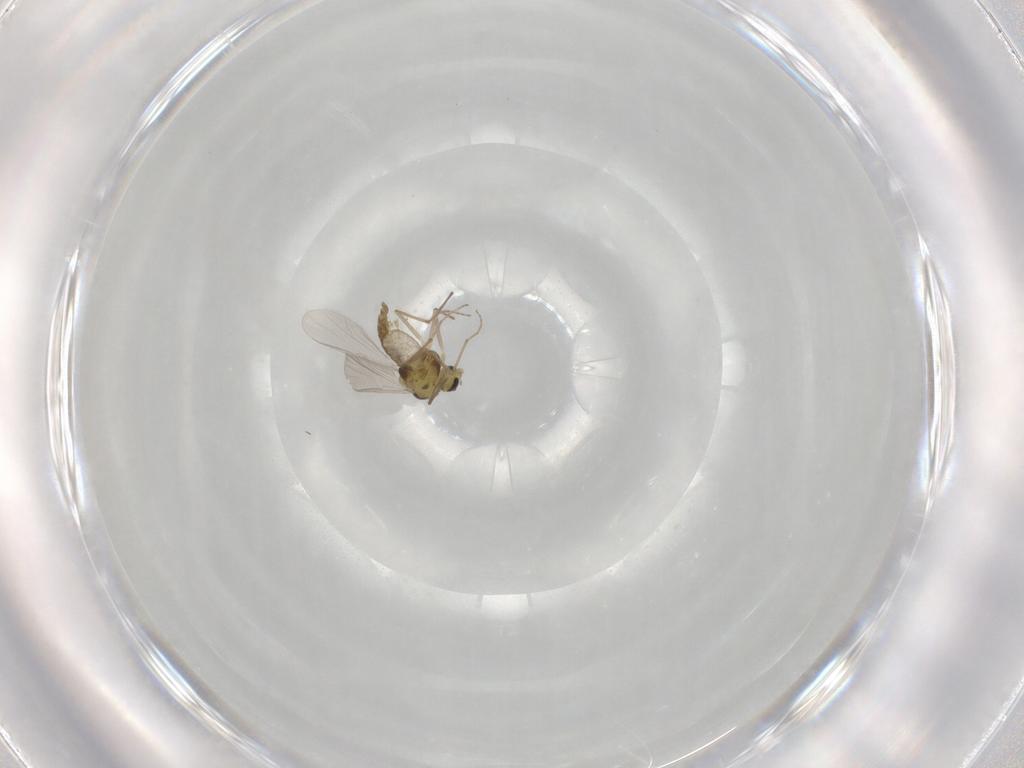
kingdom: Animalia
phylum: Arthropoda
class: Insecta
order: Diptera
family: Chironomidae
